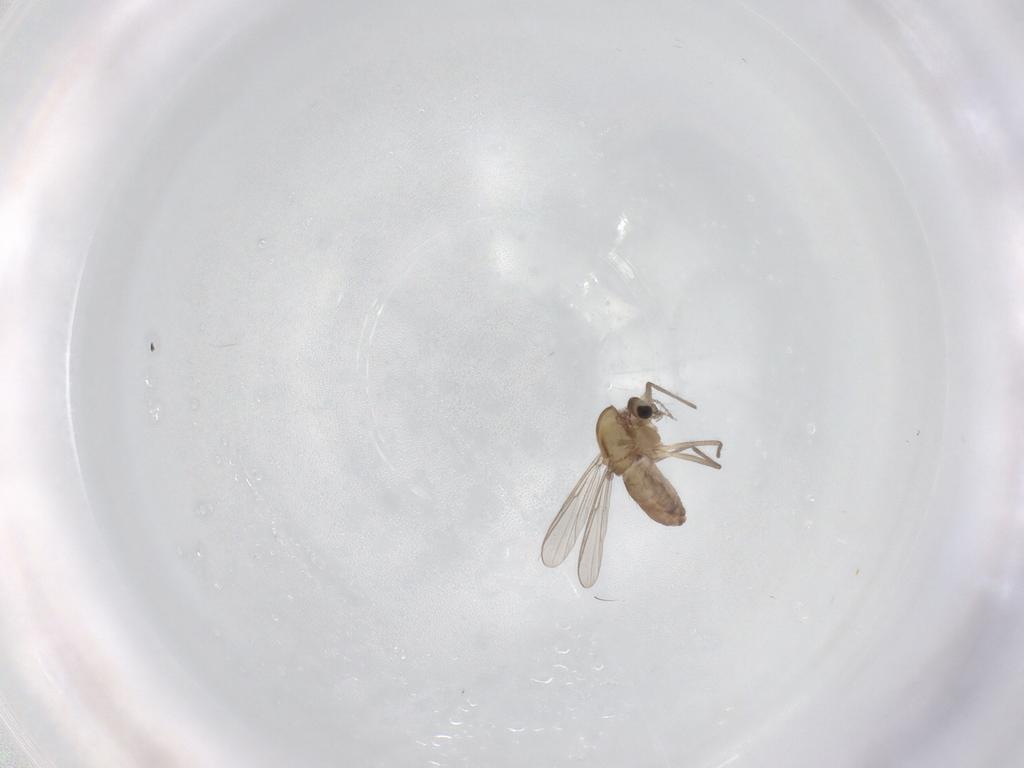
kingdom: Animalia
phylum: Arthropoda
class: Insecta
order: Diptera
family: Chironomidae
